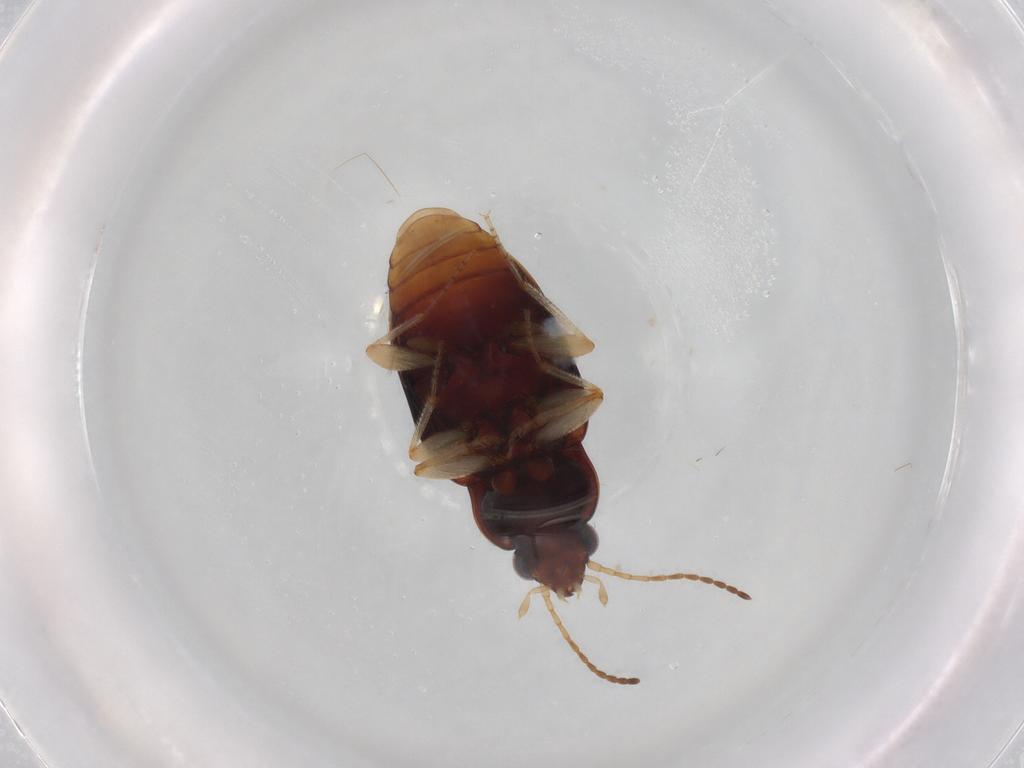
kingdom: Animalia
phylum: Arthropoda
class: Insecta
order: Coleoptera
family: Carabidae
